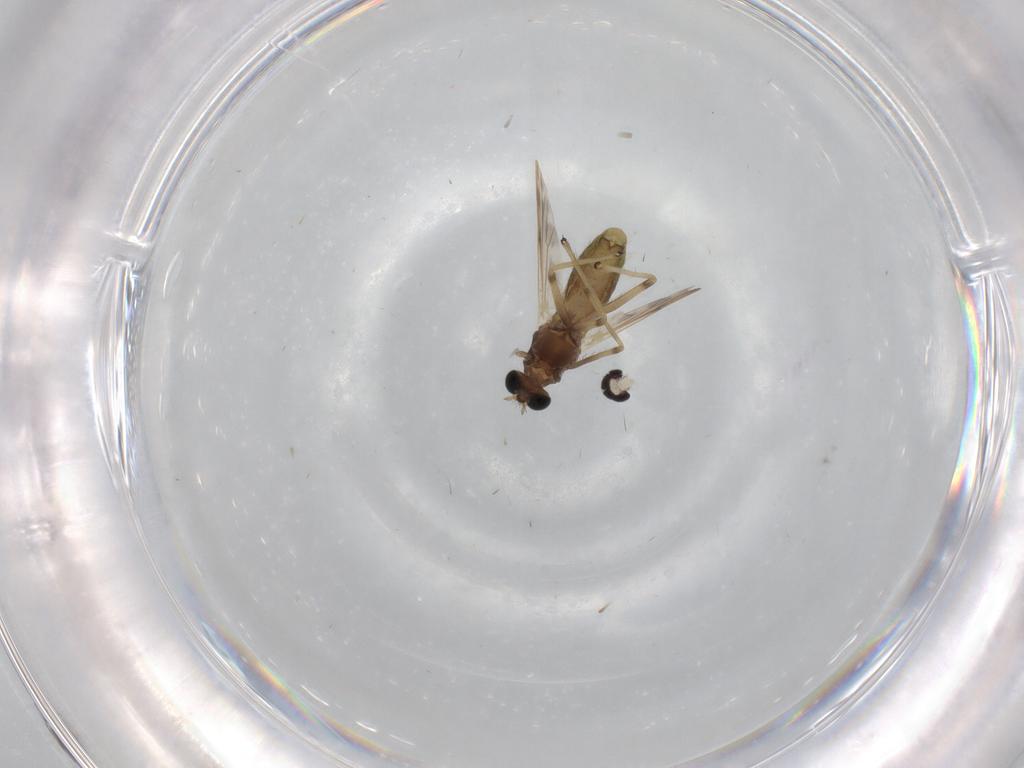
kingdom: Animalia
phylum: Arthropoda
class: Insecta
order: Diptera
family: Chironomidae
